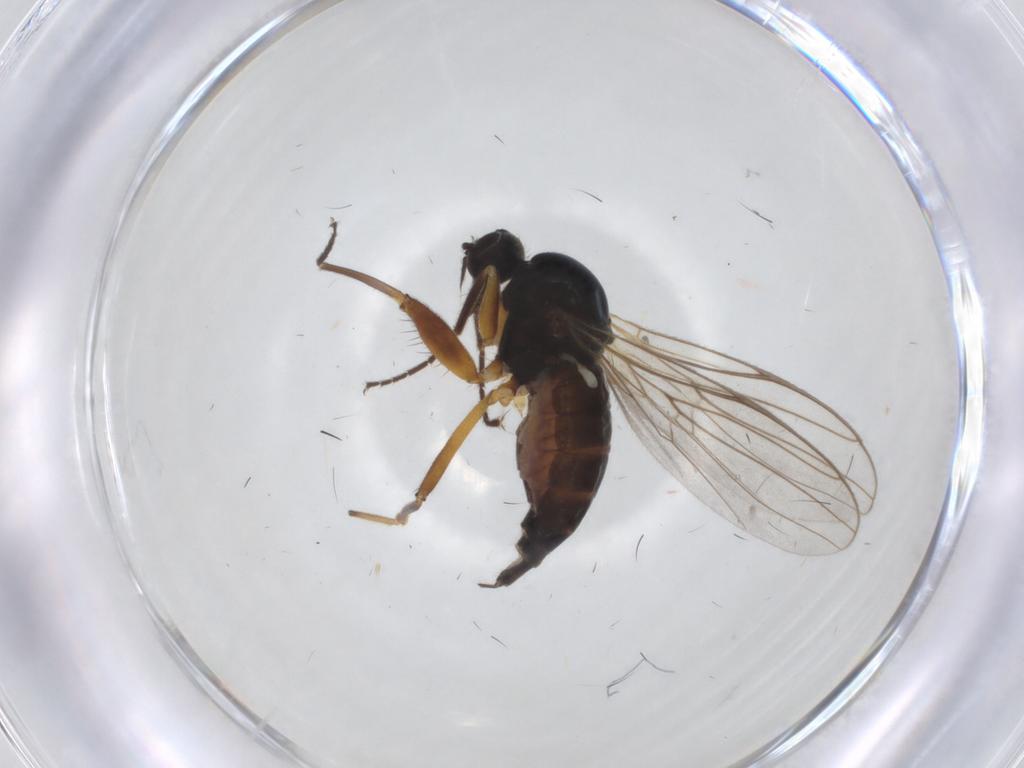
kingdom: Animalia
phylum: Arthropoda
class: Insecta
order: Diptera
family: Hybotidae
